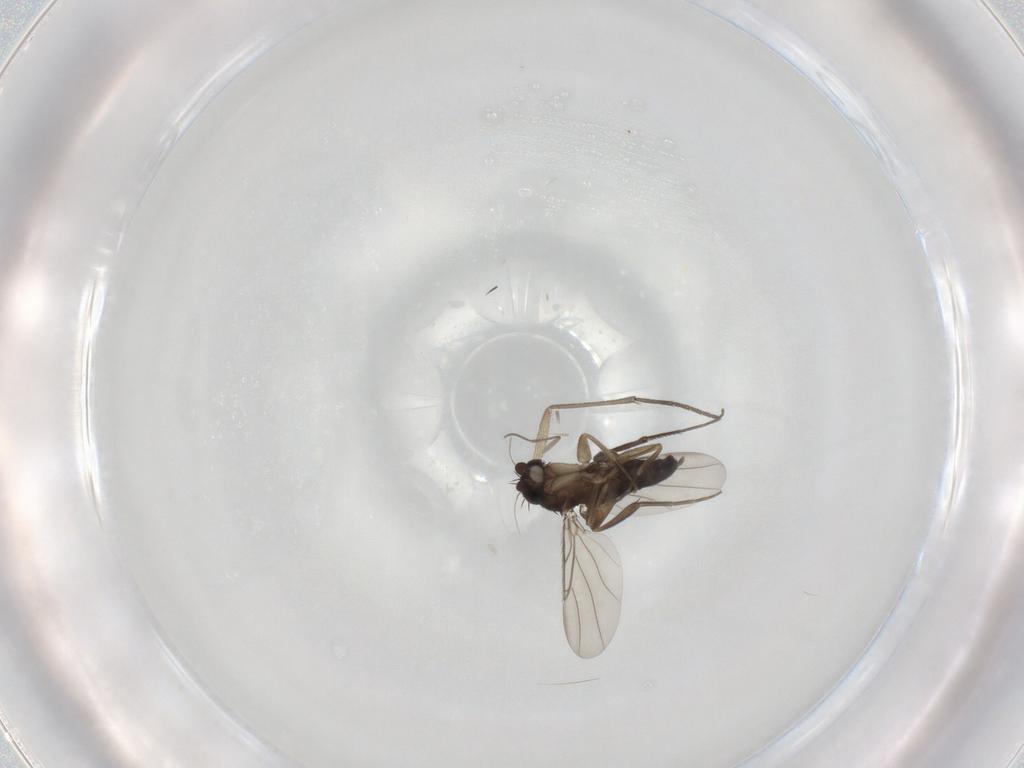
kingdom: Animalia
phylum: Arthropoda
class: Insecta
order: Diptera
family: Sciaridae
